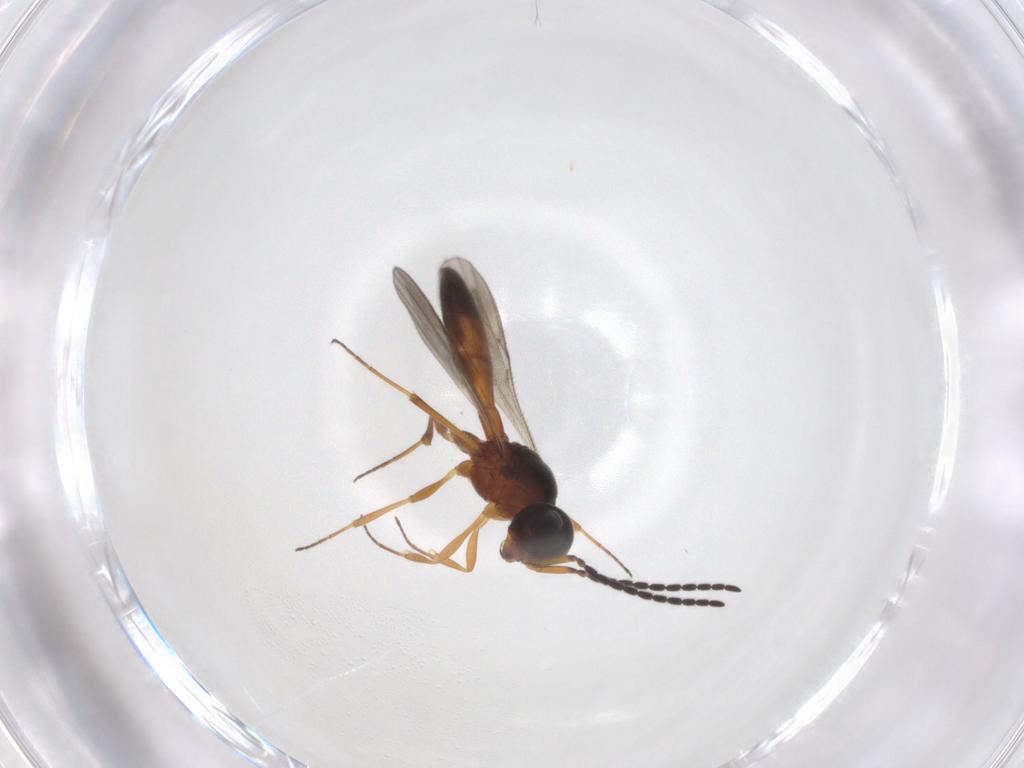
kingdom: Animalia
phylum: Arthropoda
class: Insecta
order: Hymenoptera
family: Scelionidae
